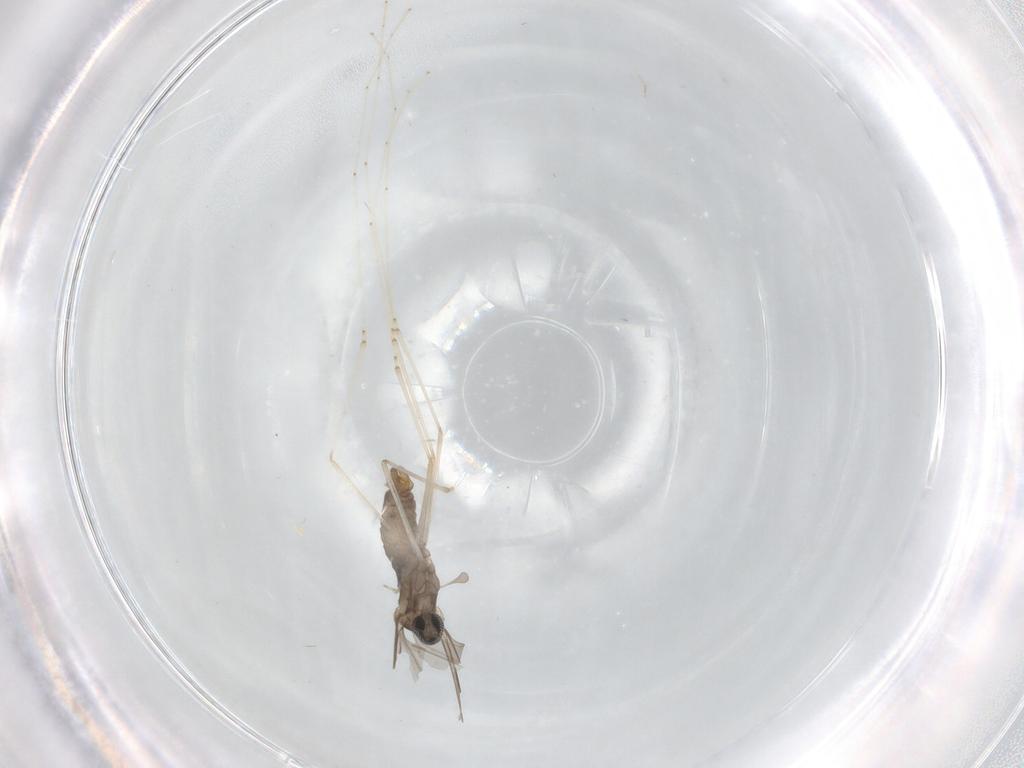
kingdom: Animalia
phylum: Arthropoda
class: Insecta
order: Diptera
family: Cecidomyiidae
